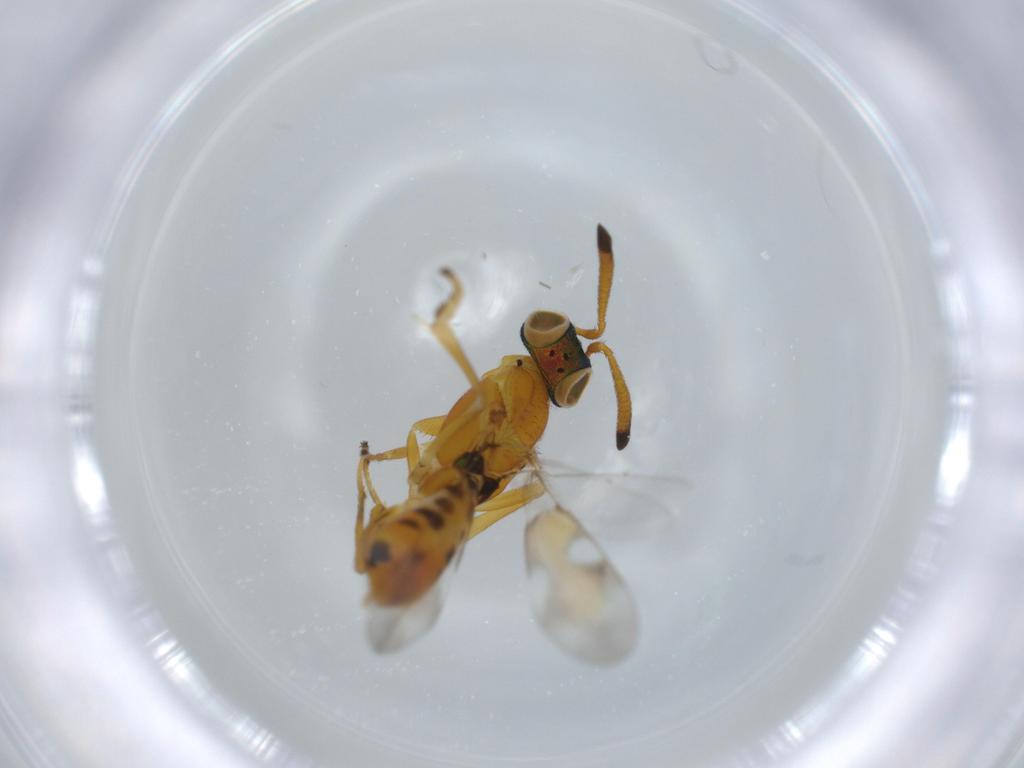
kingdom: Animalia
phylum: Arthropoda
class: Insecta
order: Hymenoptera
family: Eupelmidae
